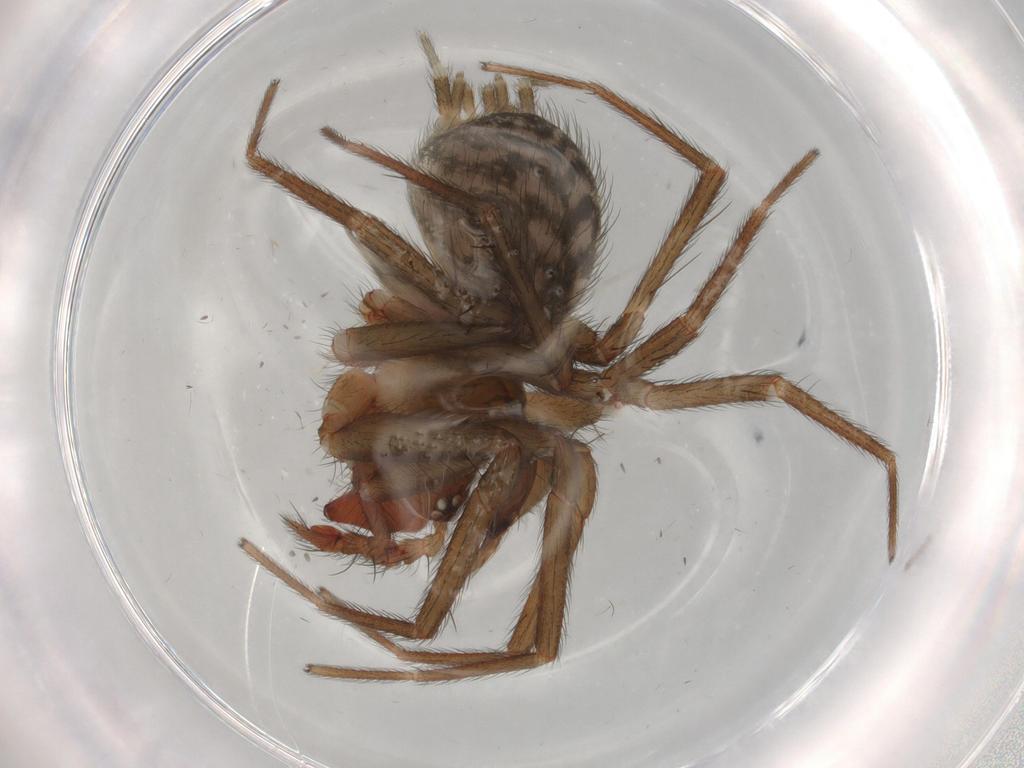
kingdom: Animalia
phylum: Arthropoda
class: Arachnida
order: Araneae
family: Hahniidae
